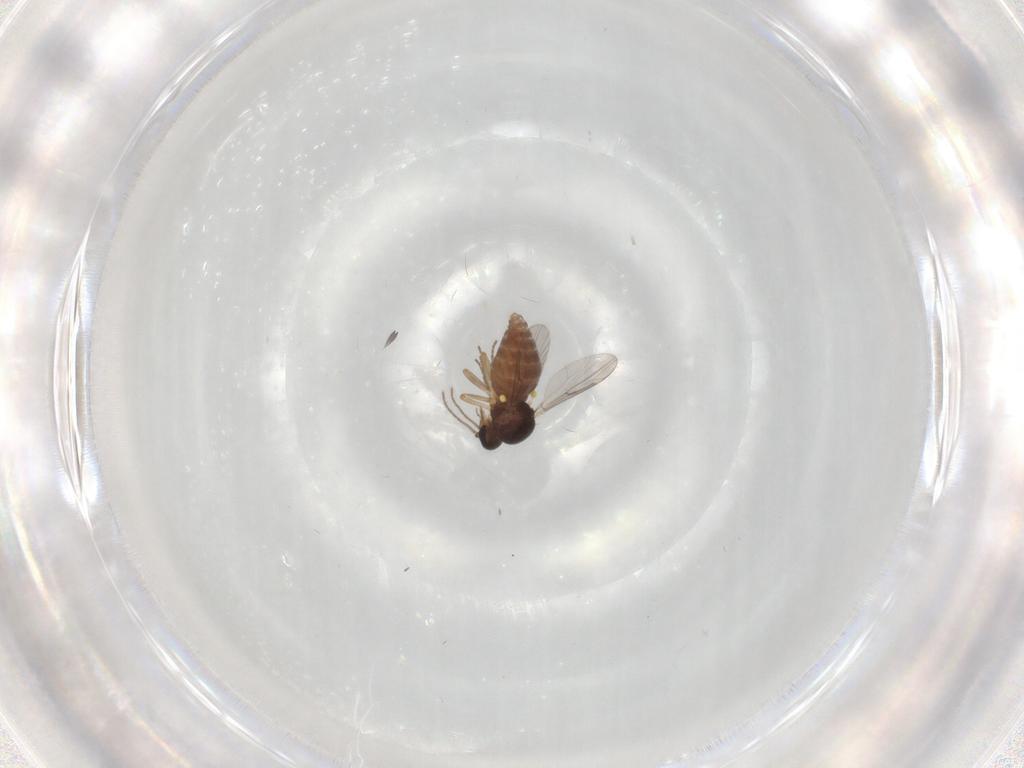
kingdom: Animalia
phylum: Arthropoda
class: Insecta
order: Diptera
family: Ceratopogonidae
